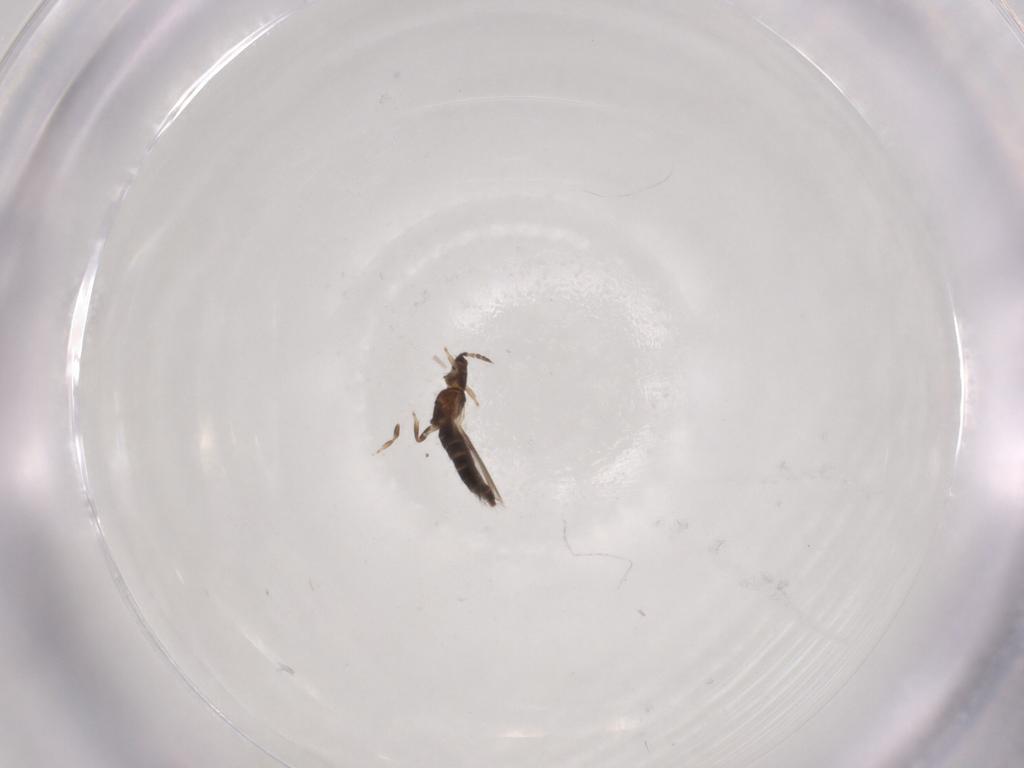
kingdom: Animalia
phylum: Arthropoda
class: Insecta
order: Thysanoptera
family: Thripidae
